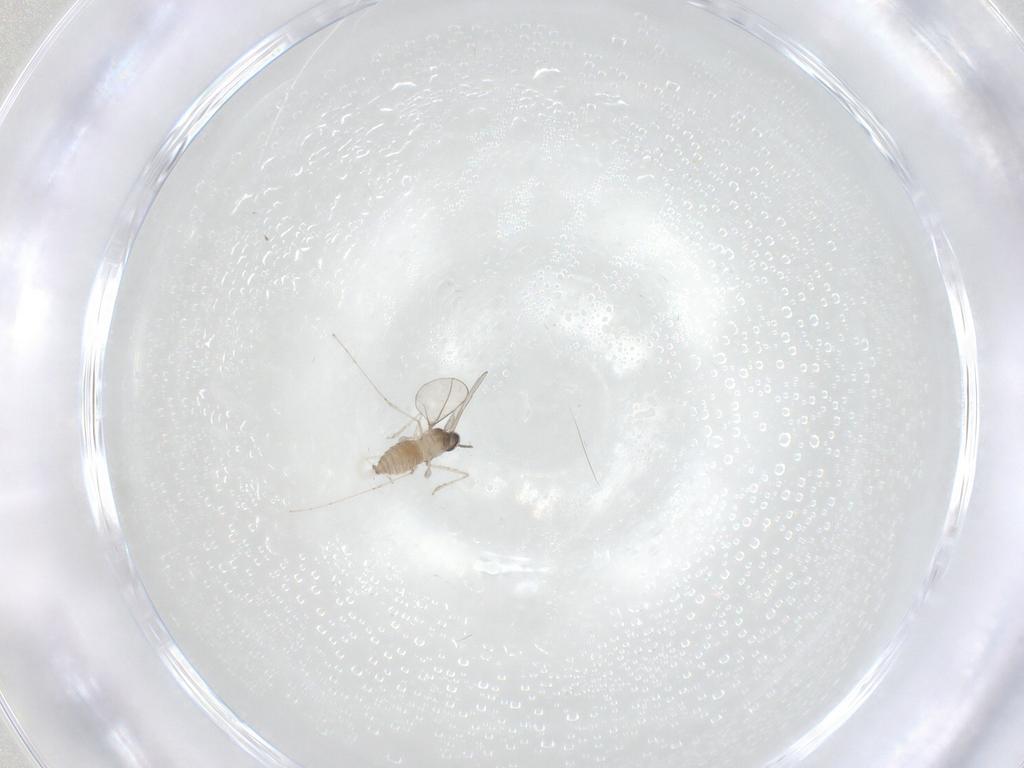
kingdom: Animalia
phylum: Arthropoda
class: Insecta
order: Diptera
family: Cecidomyiidae
